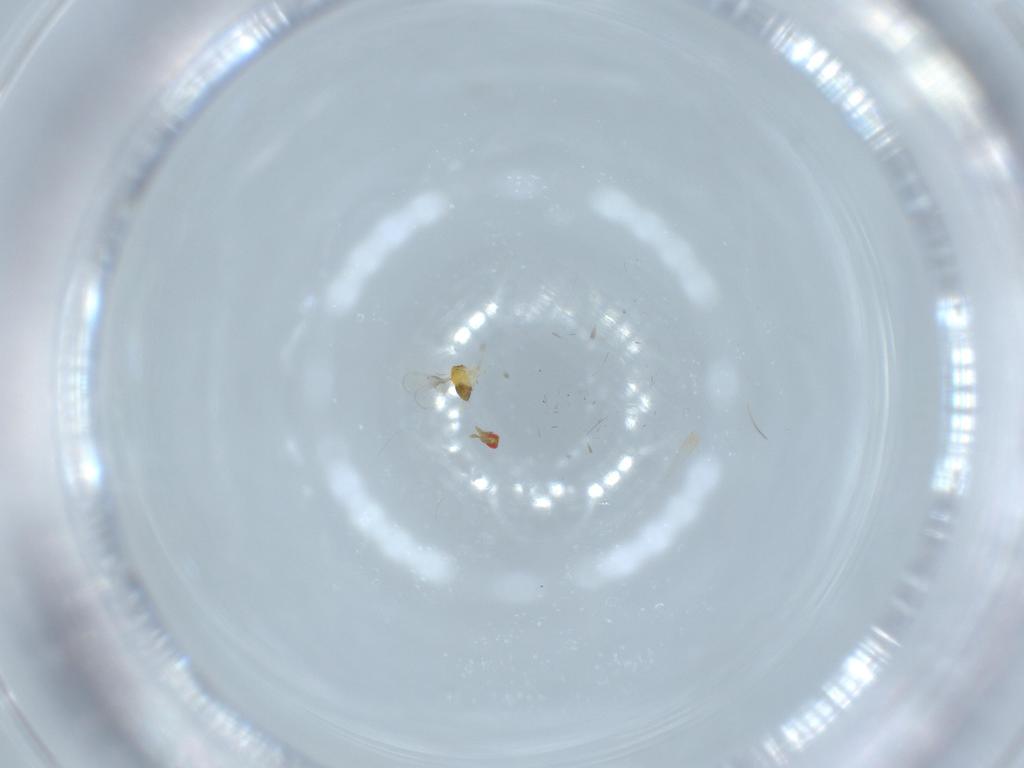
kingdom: Animalia
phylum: Arthropoda
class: Insecta
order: Hymenoptera
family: Trichogrammatidae
